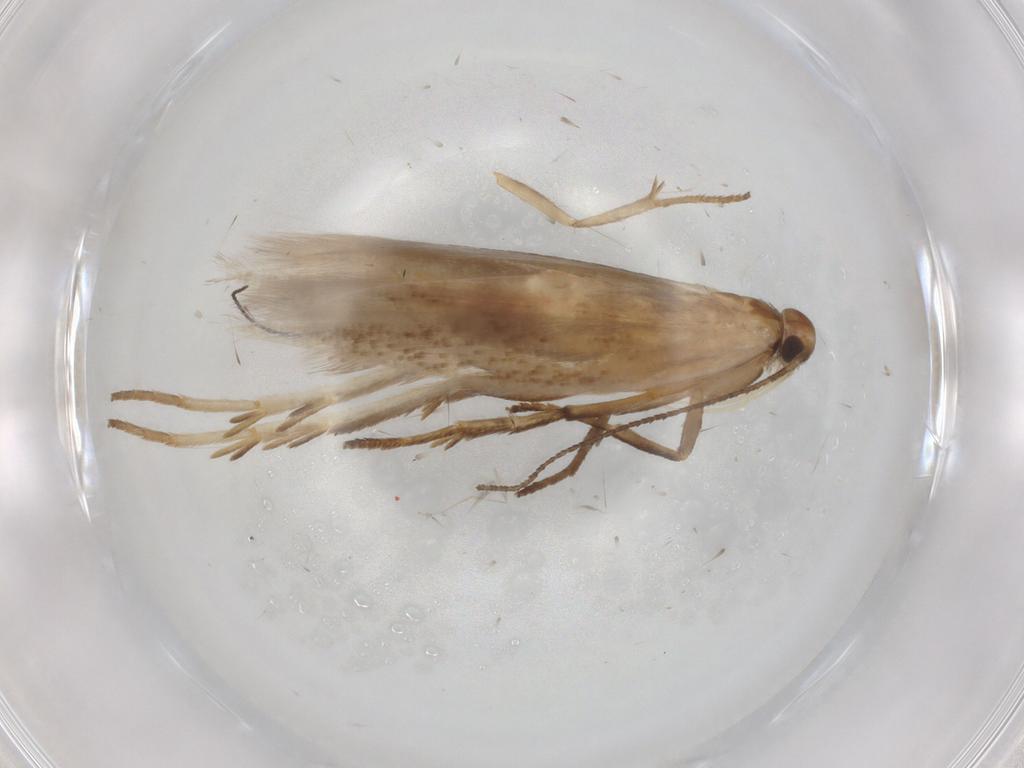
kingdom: Animalia
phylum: Arthropoda
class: Insecta
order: Lepidoptera
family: Gelechiidae
